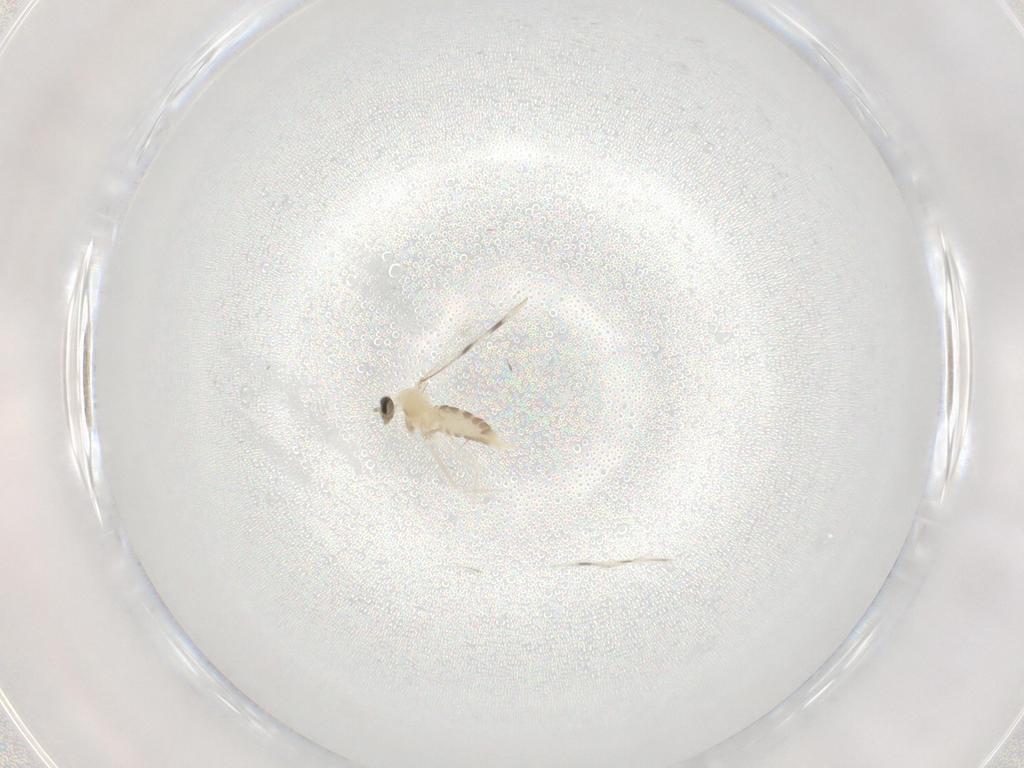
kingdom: Animalia
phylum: Arthropoda
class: Insecta
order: Diptera
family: Cecidomyiidae
